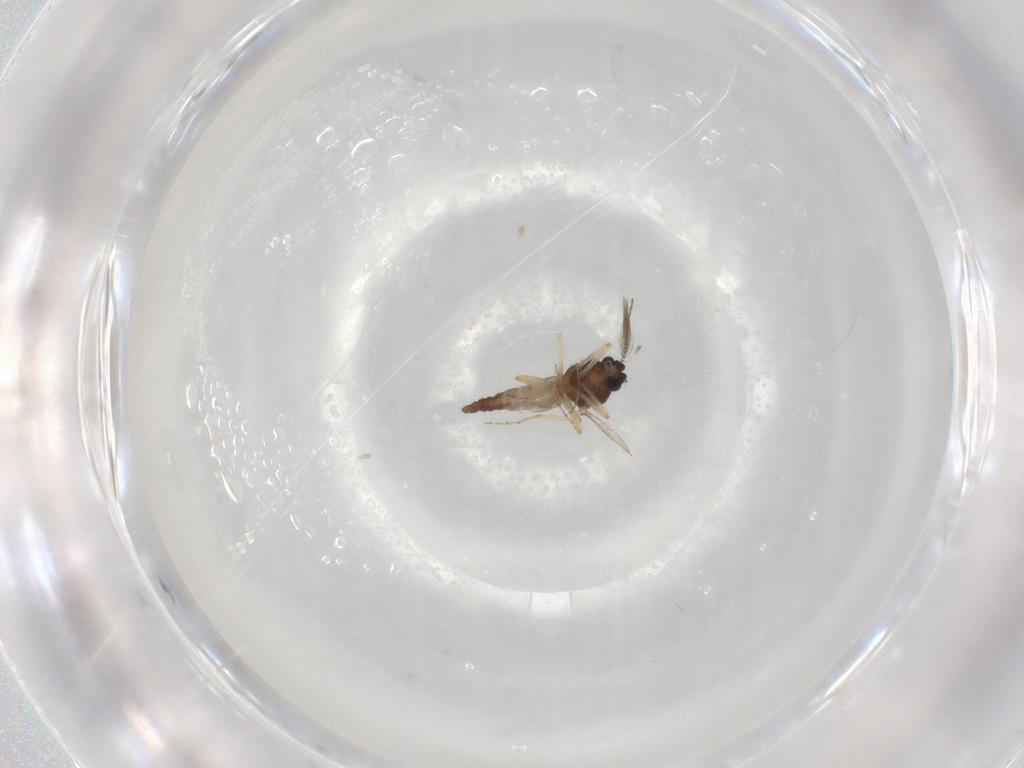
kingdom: Animalia
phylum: Arthropoda
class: Insecta
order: Diptera
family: Ceratopogonidae
